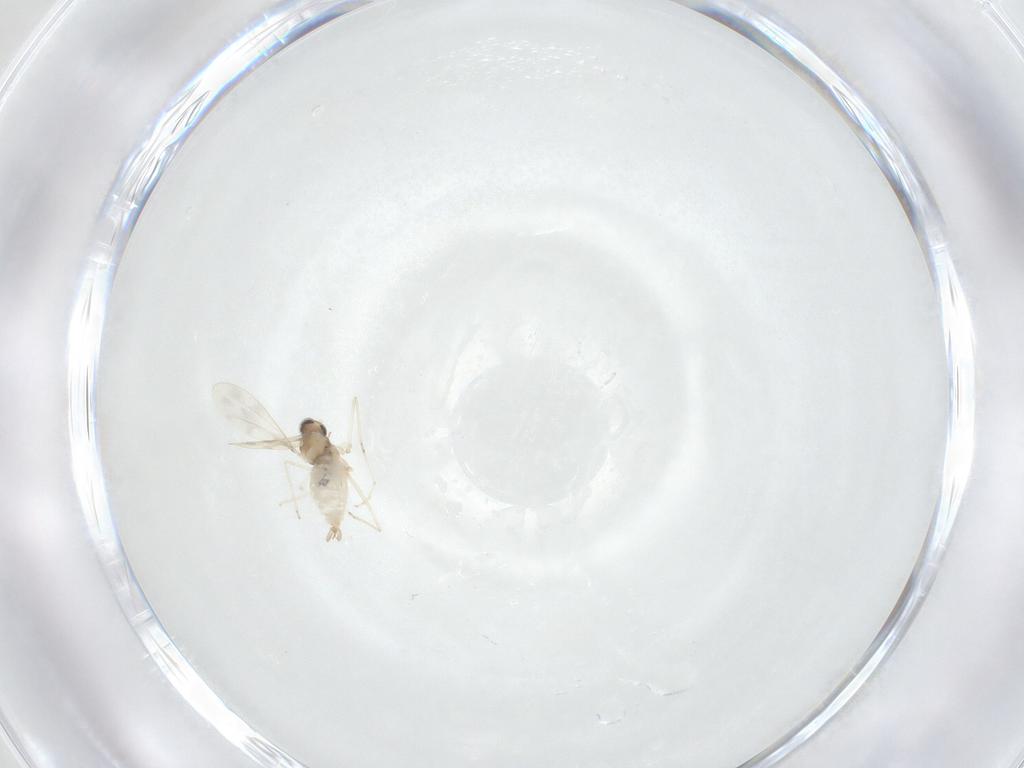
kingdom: Animalia
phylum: Arthropoda
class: Insecta
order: Diptera
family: Cecidomyiidae
